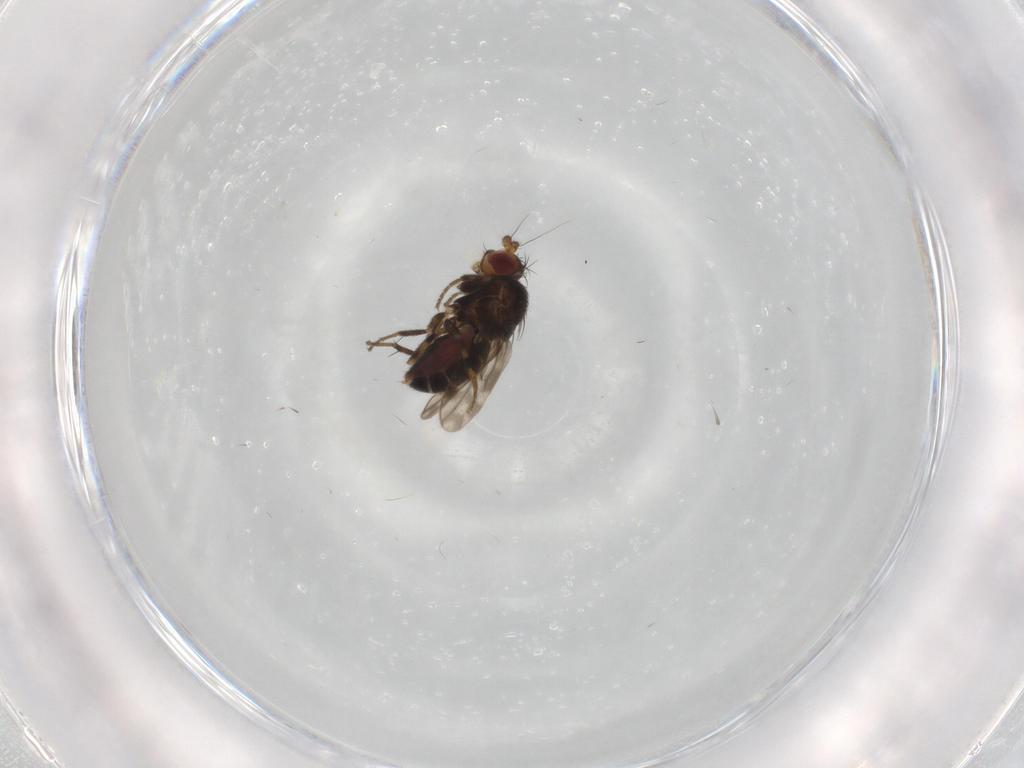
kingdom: Animalia
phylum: Arthropoda
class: Insecta
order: Diptera
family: Sphaeroceridae
